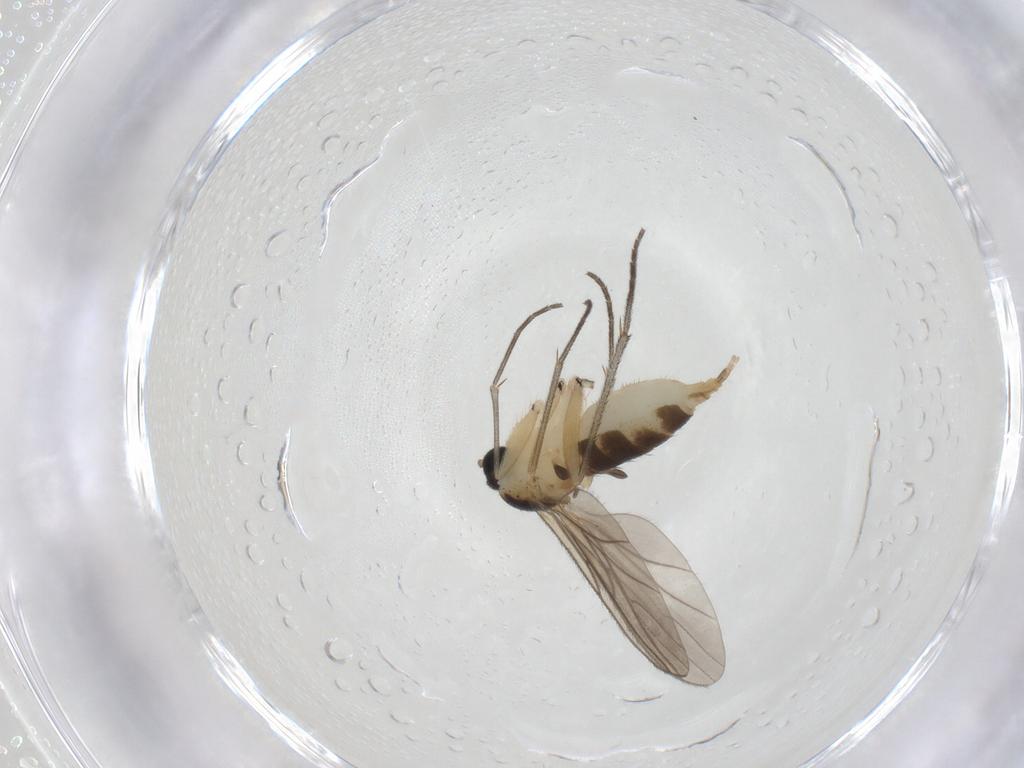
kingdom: Animalia
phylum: Arthropoda
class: Insecta
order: Diptera
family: Sciaridae
